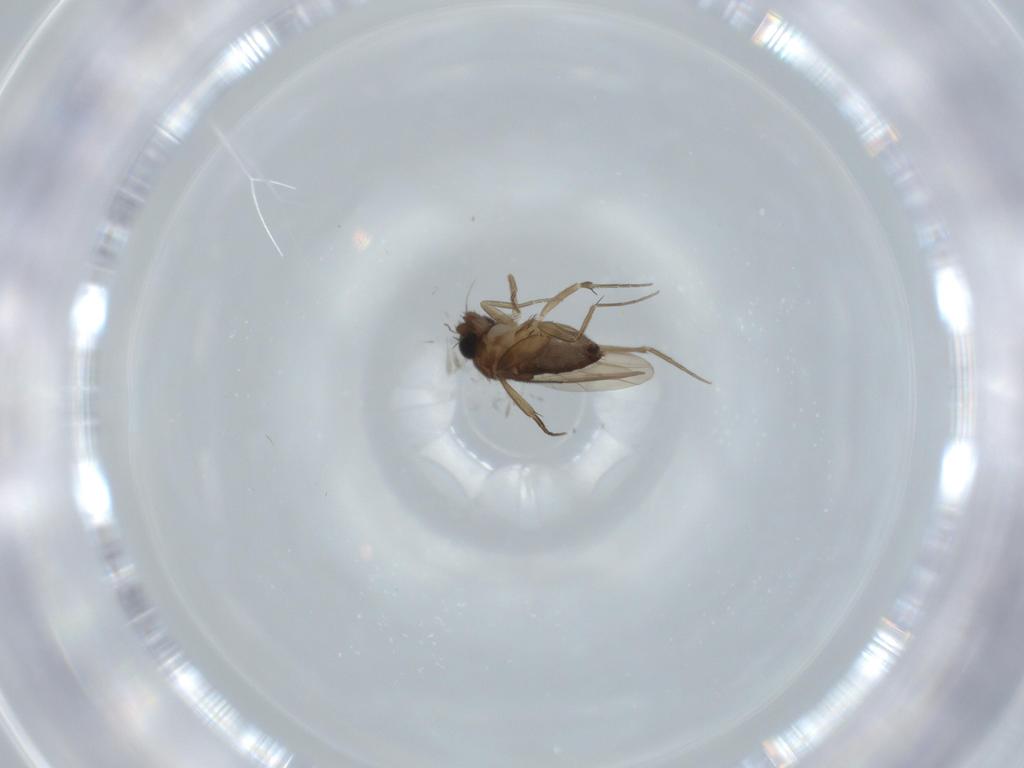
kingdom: Animalia
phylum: Arthropoda
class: Insecta
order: Diptera
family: Phoridae
